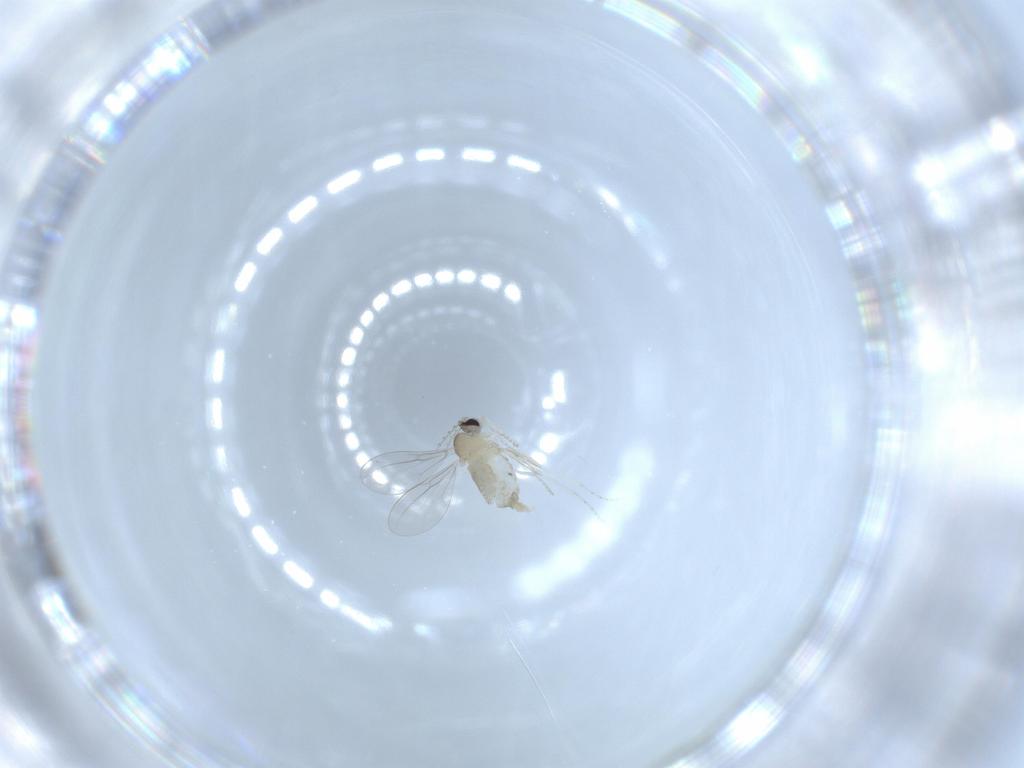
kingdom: Animalia
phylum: Arthropoda
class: Insecta
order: Diptera
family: Cecidomyiidae
